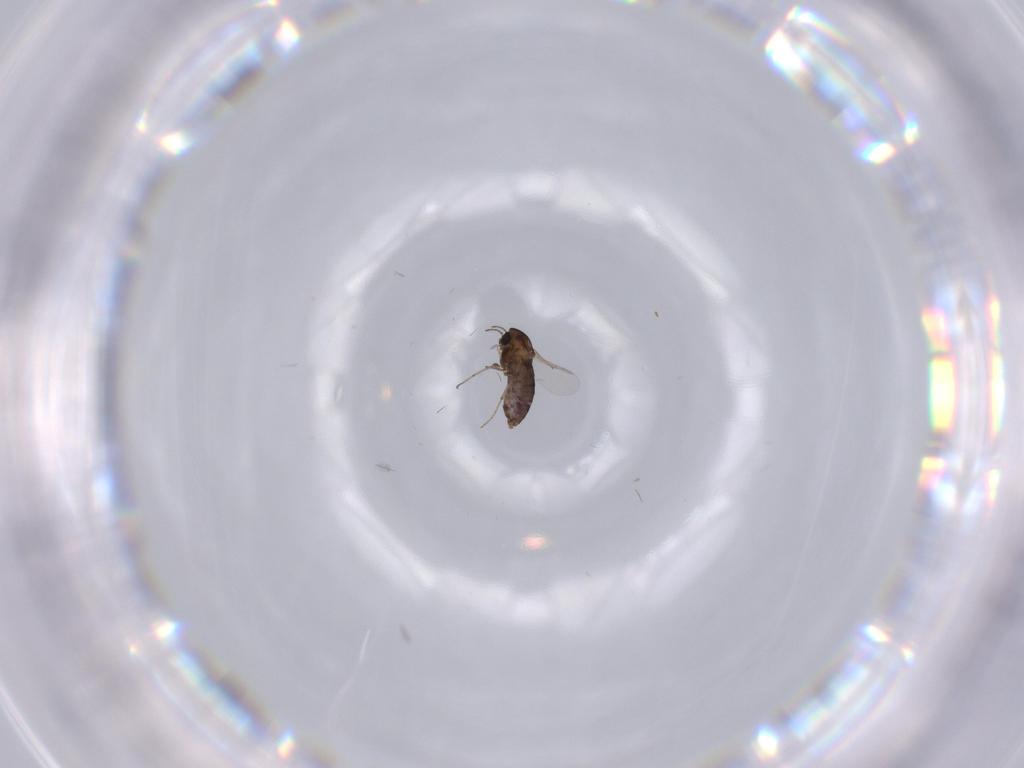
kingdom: Animalia
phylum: Arthropoda
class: Insecta
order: Diptera
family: Chironomidae
